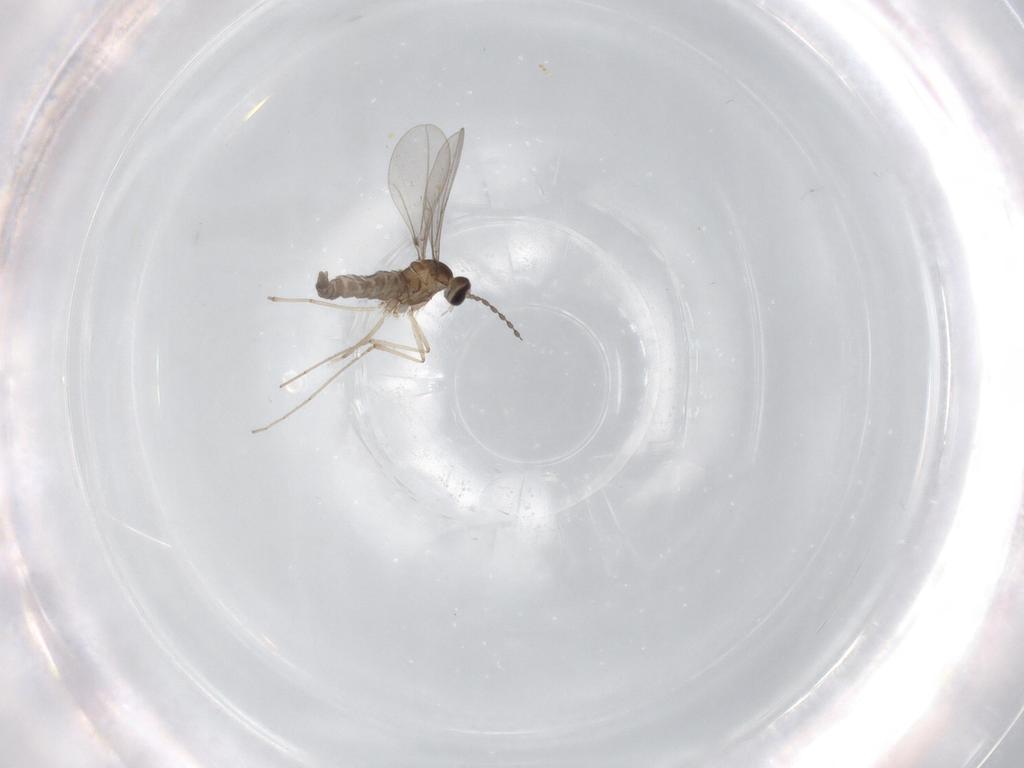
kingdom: Animalia
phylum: Arthropoda
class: Insecta
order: Diptera
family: Cecidomyiidae
